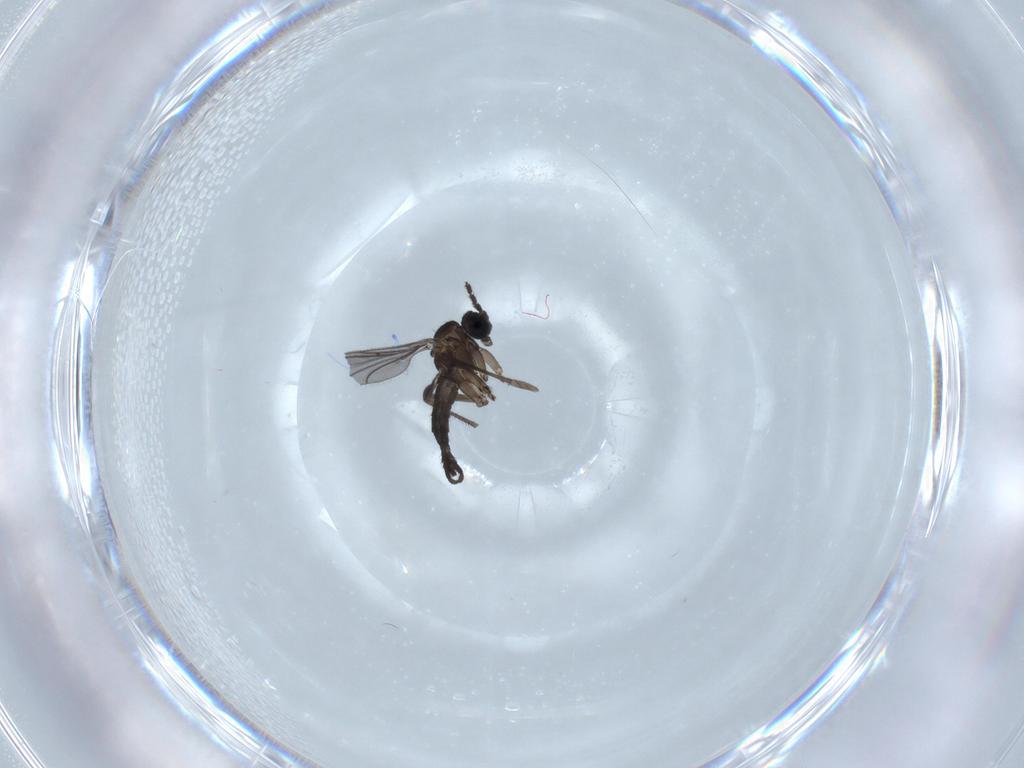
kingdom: Animalia
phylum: Arthropoda
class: Insecta
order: Diptera
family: Sciaridae
